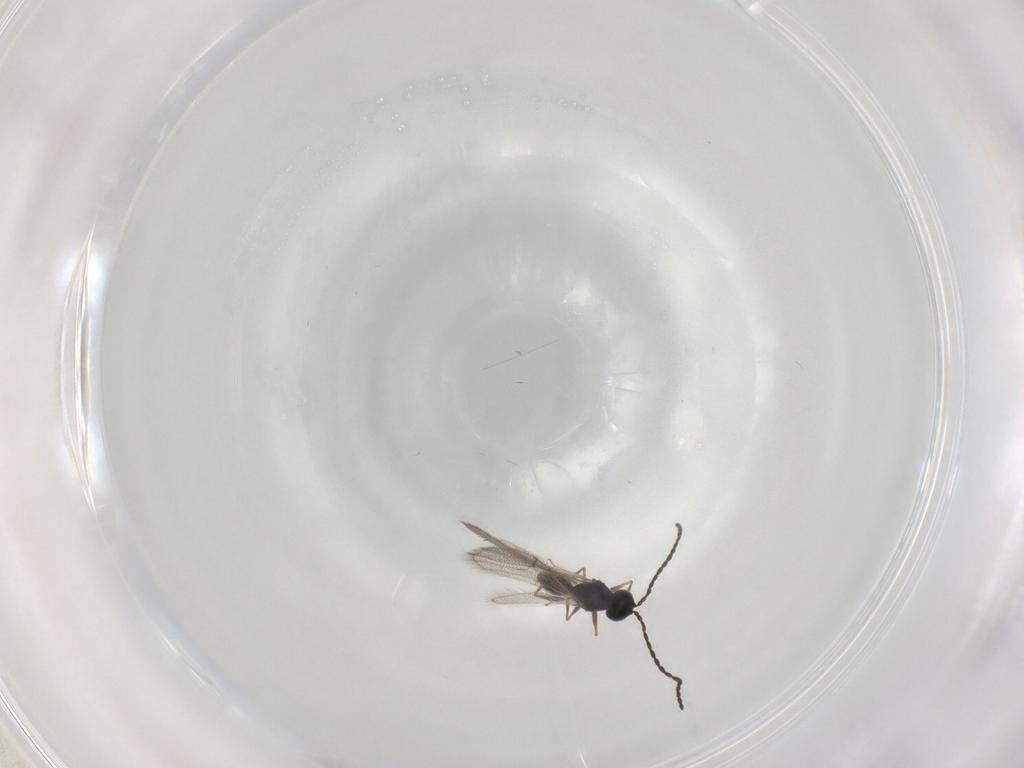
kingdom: Animalia
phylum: Arthropoda
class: Insecta
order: Hymenoptera
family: Figitidae
